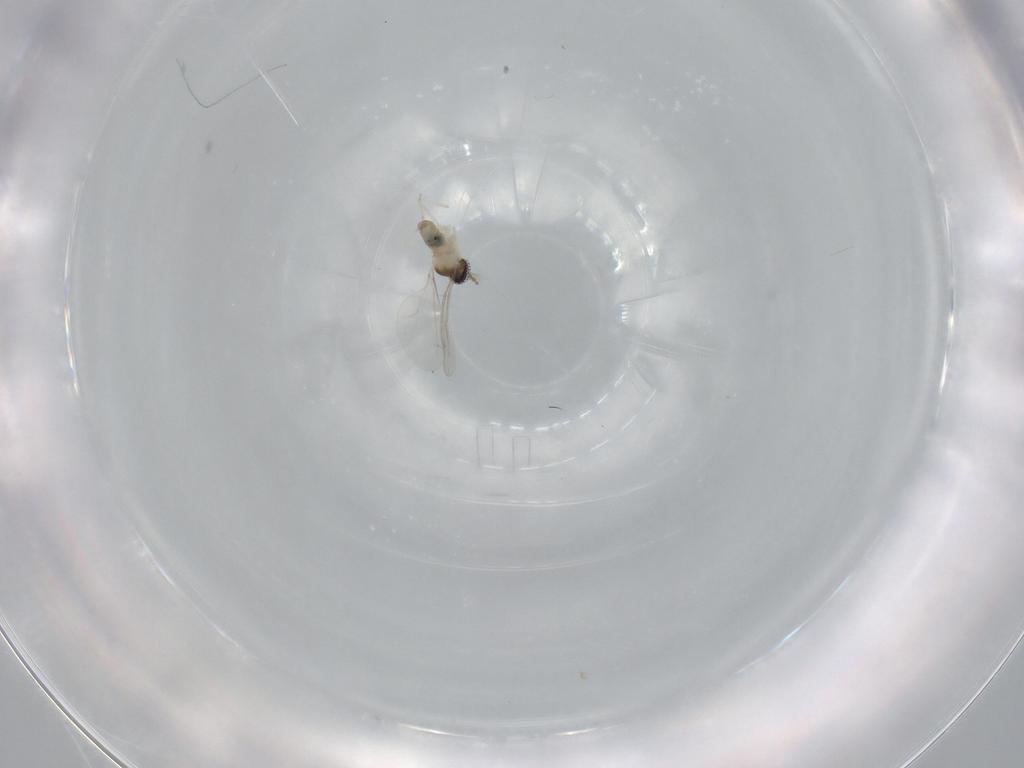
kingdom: Animalia
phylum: Arthropoda
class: Insecta
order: Diptera
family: Cecidomyiidae
